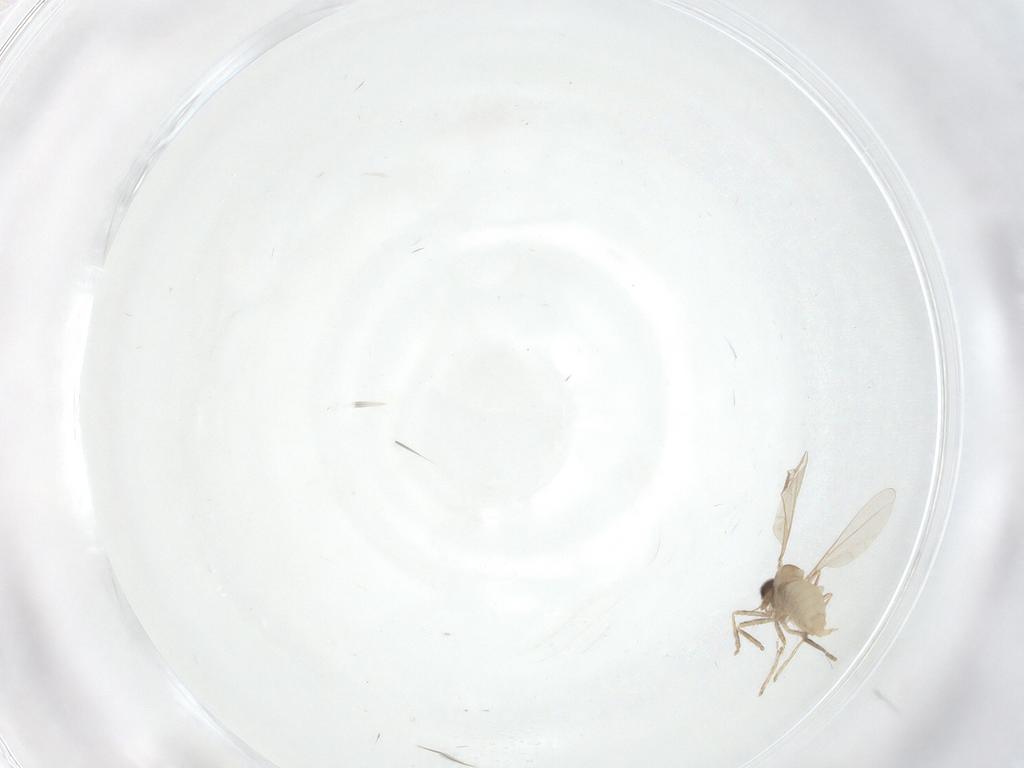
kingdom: Animalia
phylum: Arthropoda
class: Insecta
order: Diptera
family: Cecidomyiidae
